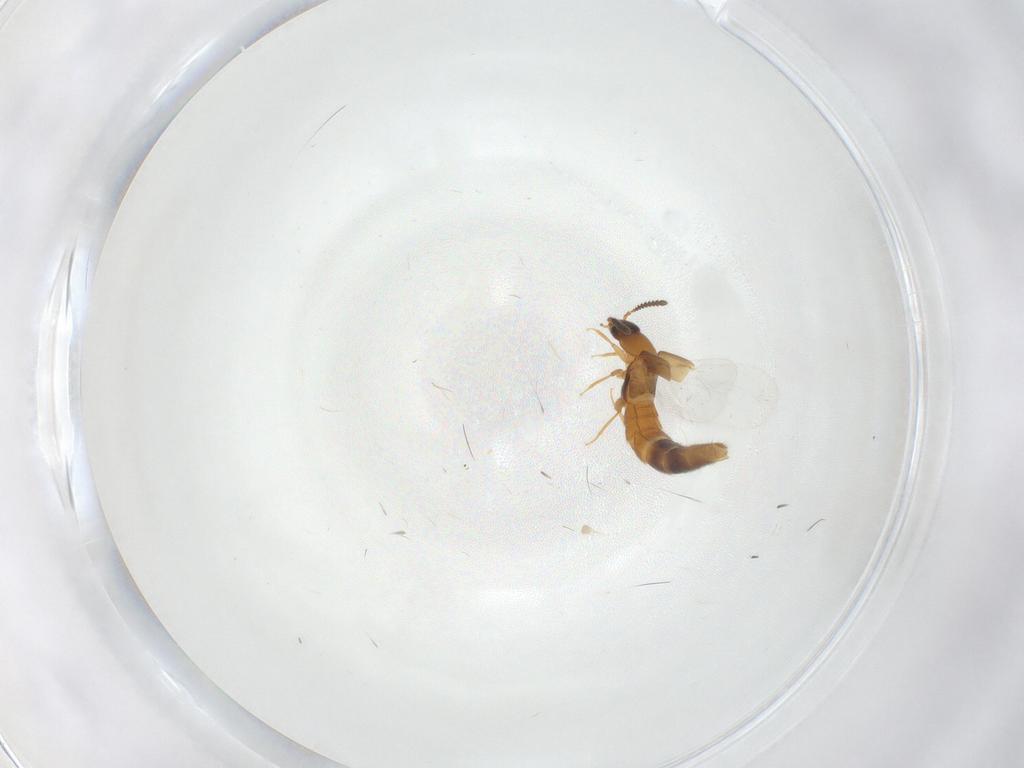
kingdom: Animalia
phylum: Arthropoda
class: Insecta
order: Coleoptera
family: Staphylinidae
